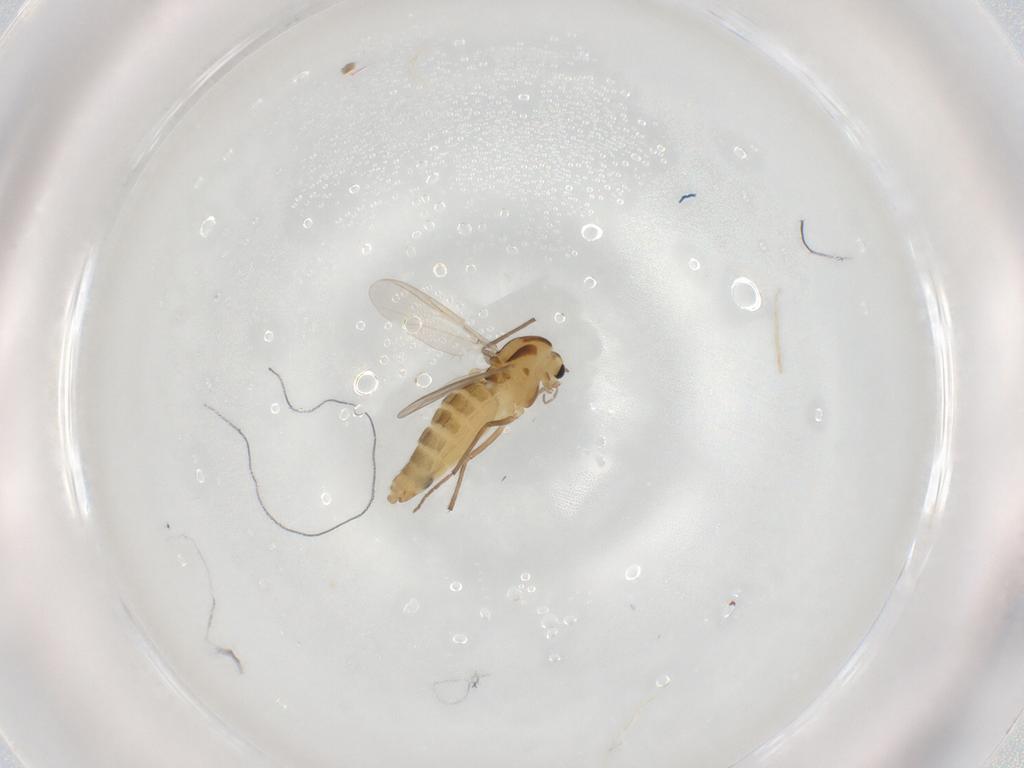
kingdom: Animalia
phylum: Arthropoda
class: Insecta
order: Diptera
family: Chironomidae
